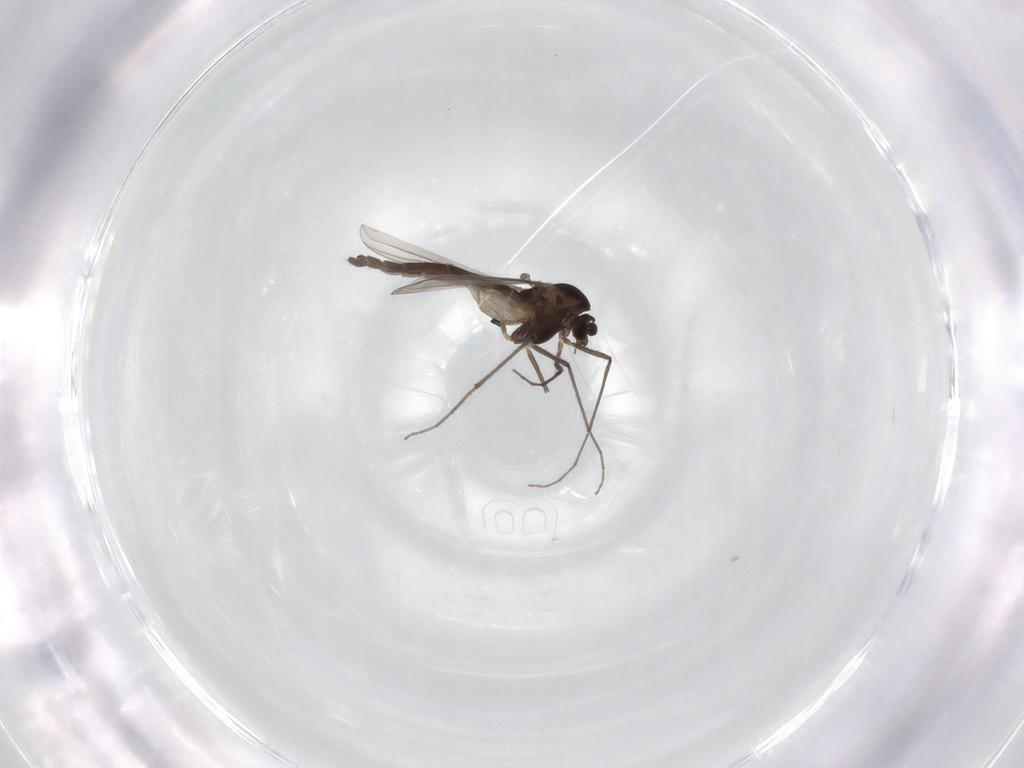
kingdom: Animalia
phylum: Arthropoda
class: Insecta
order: Diptera
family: Chironomidae
